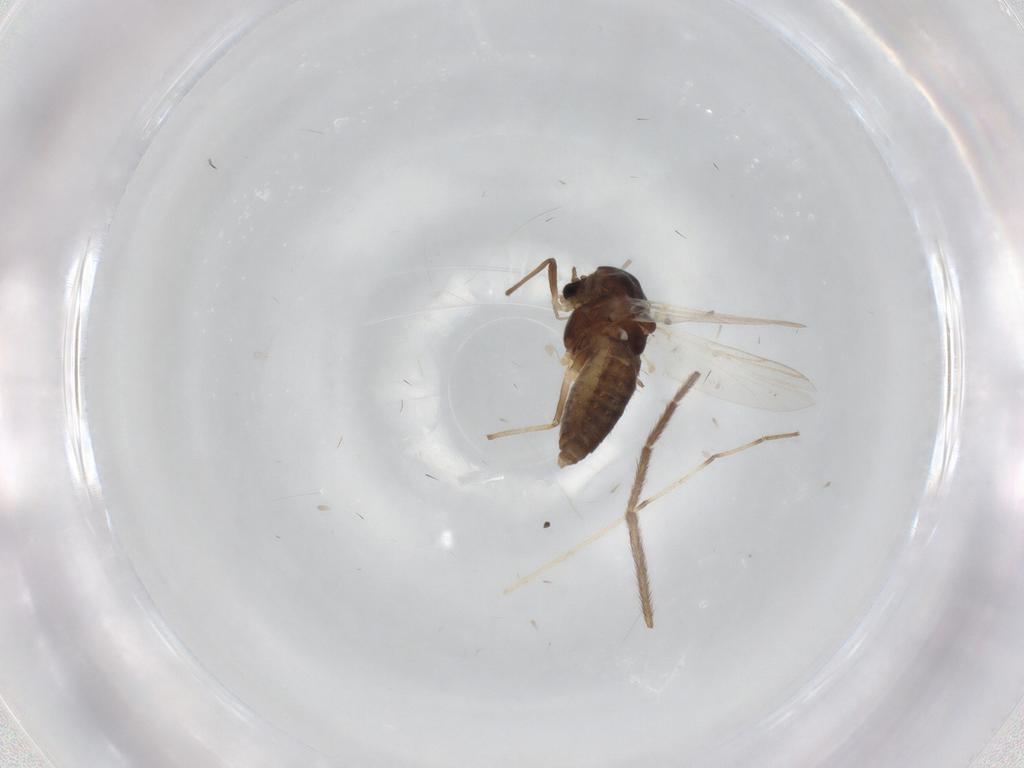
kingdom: Animalia
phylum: Arthropoda
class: Insecta
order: Diptera
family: Chironomidae
